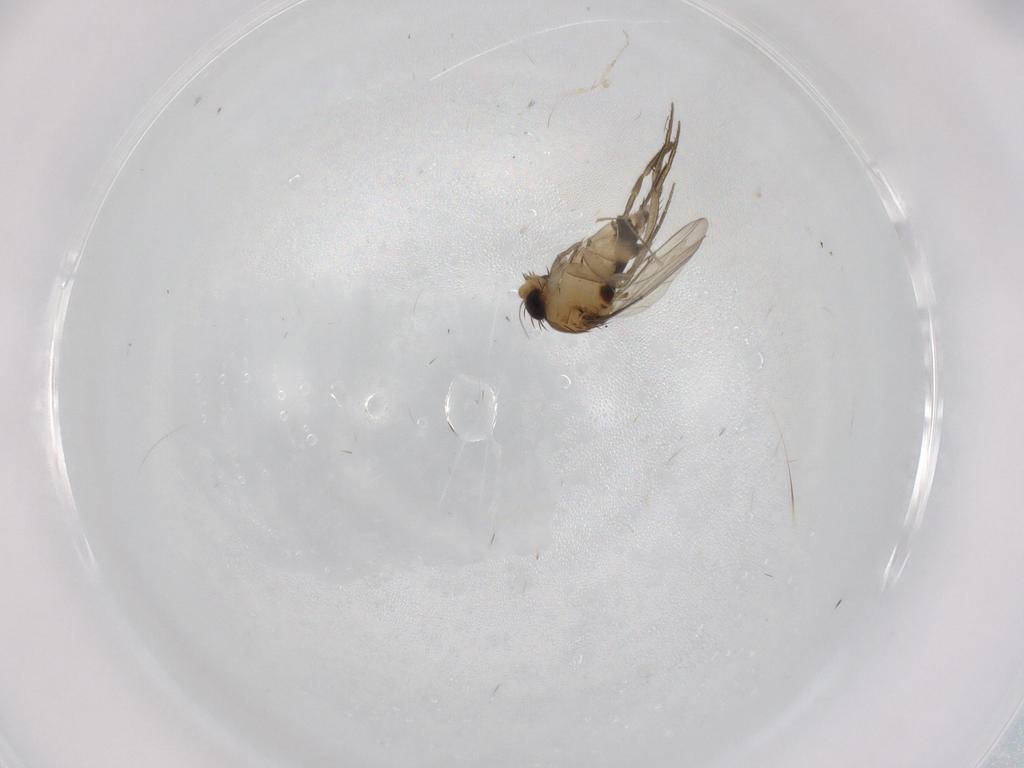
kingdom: Animalia
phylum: Arthropoda
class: Insecta
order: Diptera
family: Phoridae
